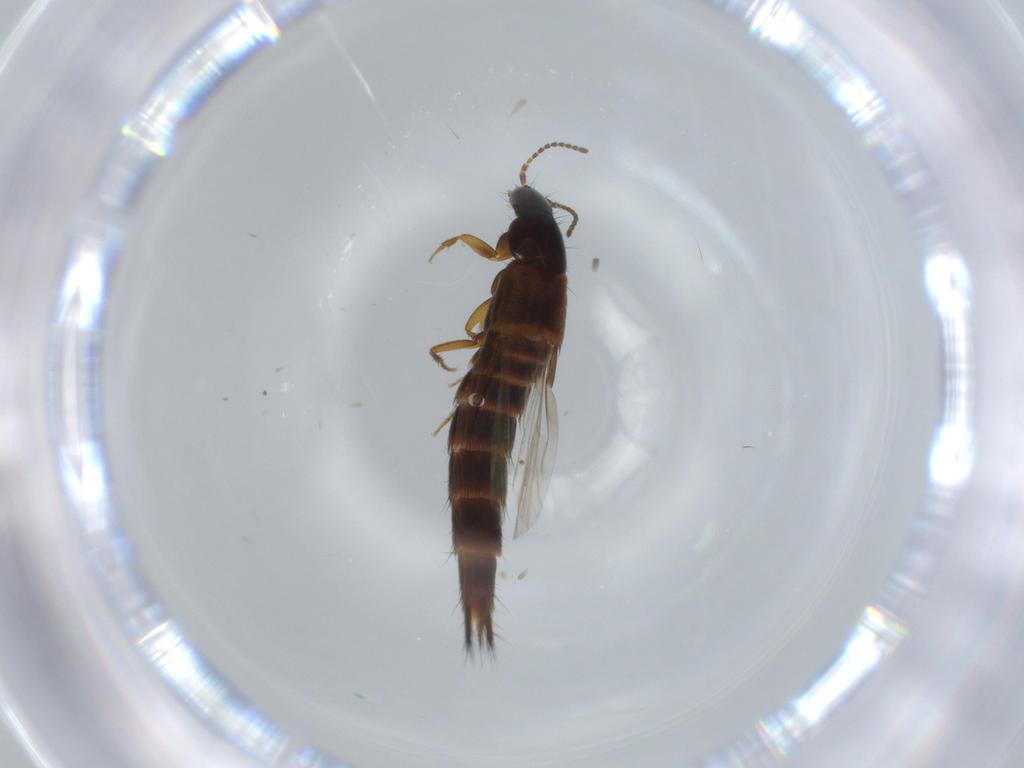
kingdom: Animalia
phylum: Arthropoda
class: Insecta
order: Coleoptera
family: Staphylinidae
